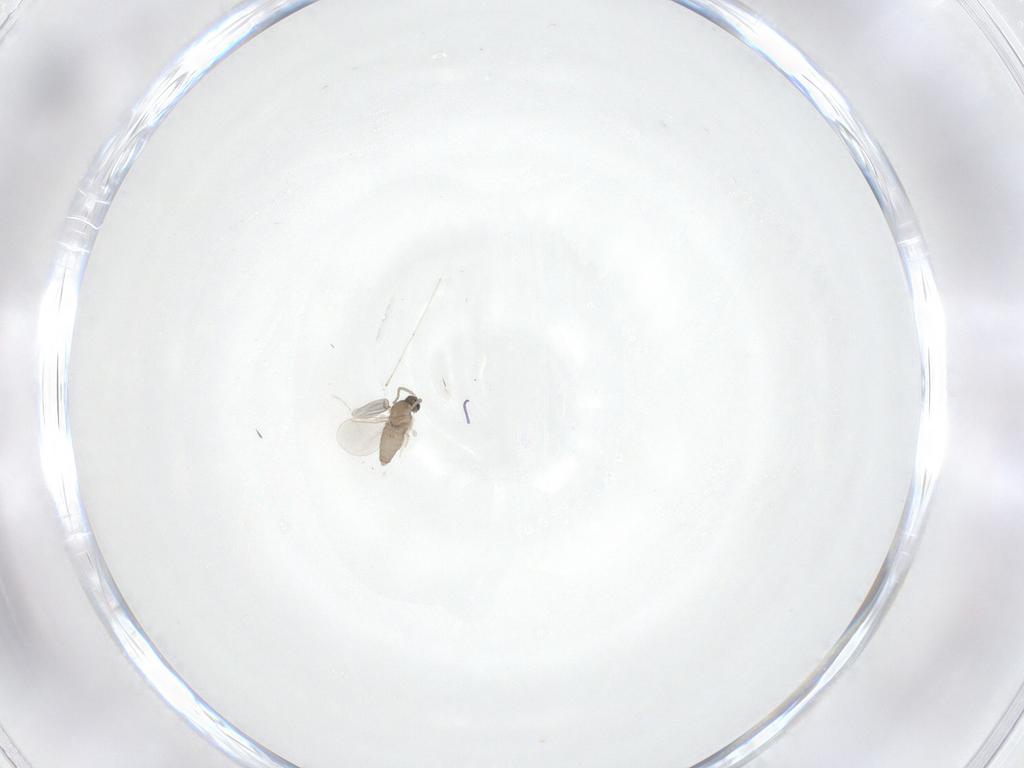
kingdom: Animalia
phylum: Arthropoda
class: Insecta
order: Diptera
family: Cecidomyiidae
